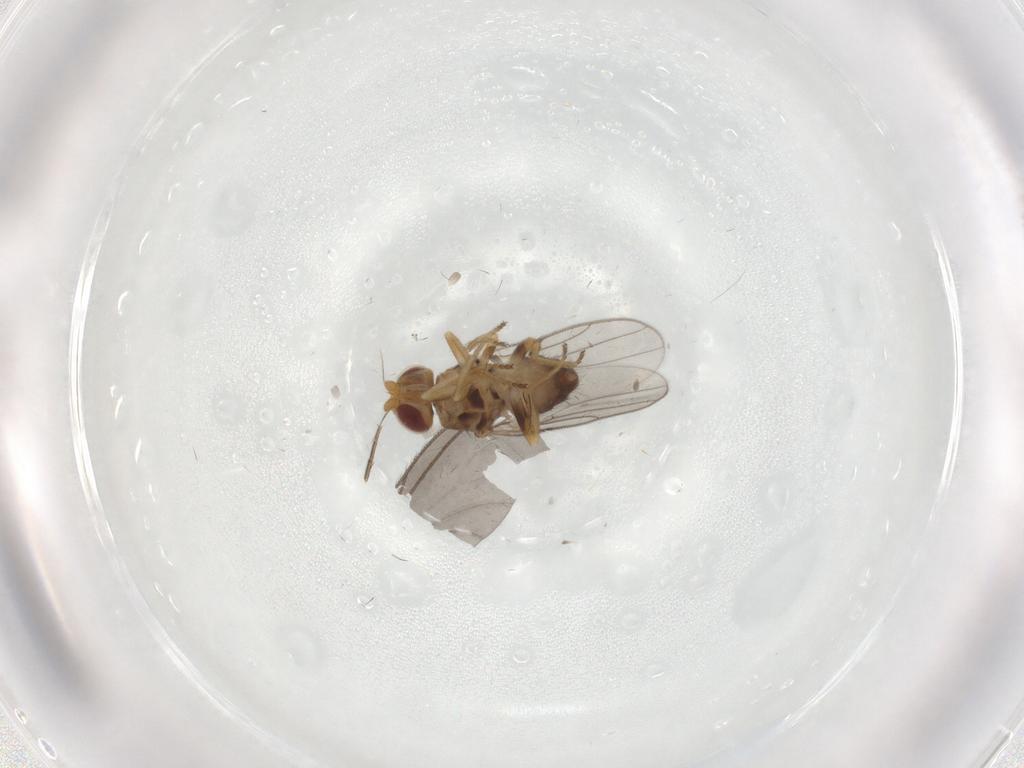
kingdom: Animalia
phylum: Arthropoda
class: Insecta
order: Diptera
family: Chloropidae
